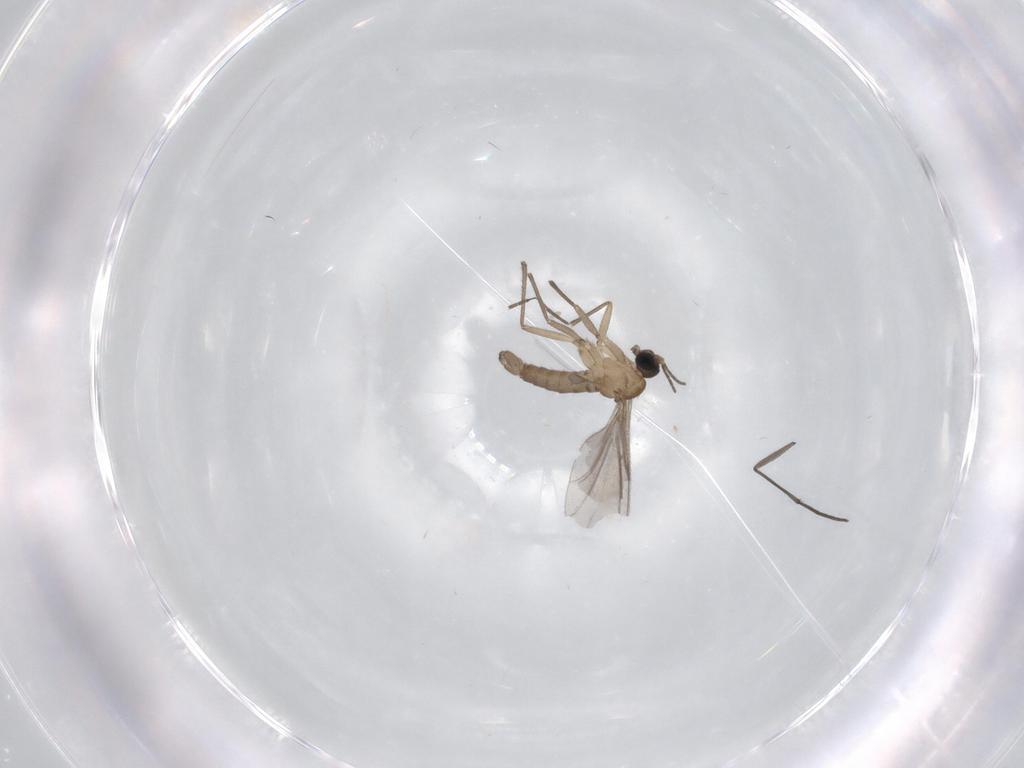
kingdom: Animalia
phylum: Arthropoda
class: Insecta
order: Diptera
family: Sciaridae
